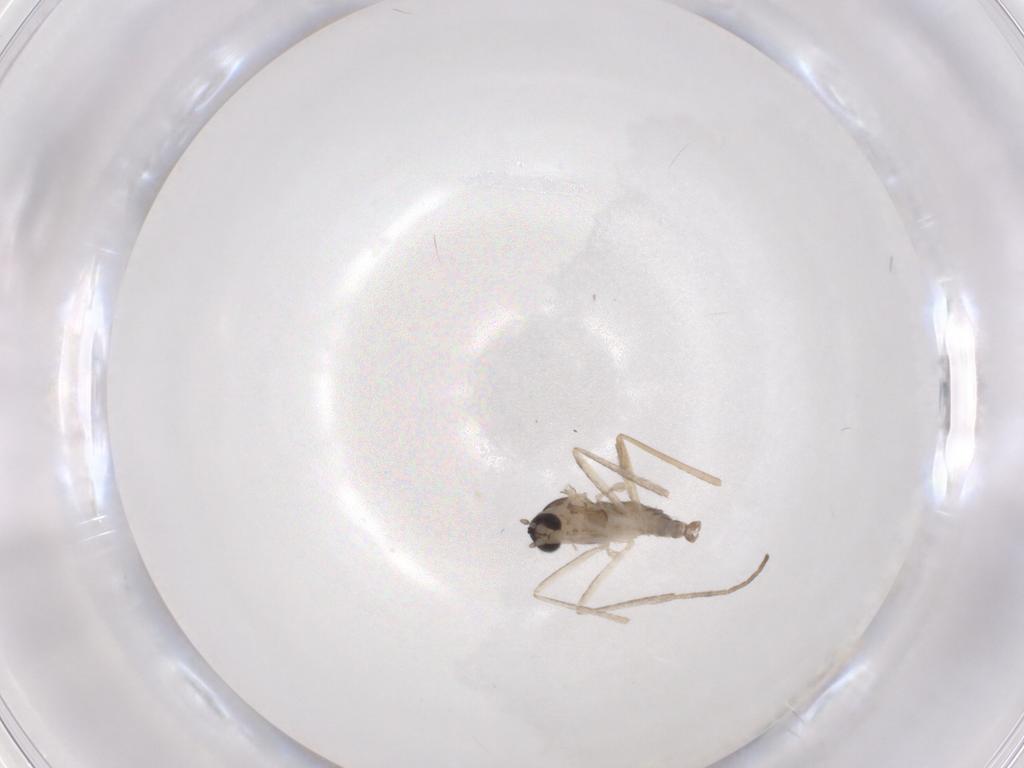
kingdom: Animalia
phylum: Arthropoda
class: Insecta
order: Diptera
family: Cecidomyiidae
